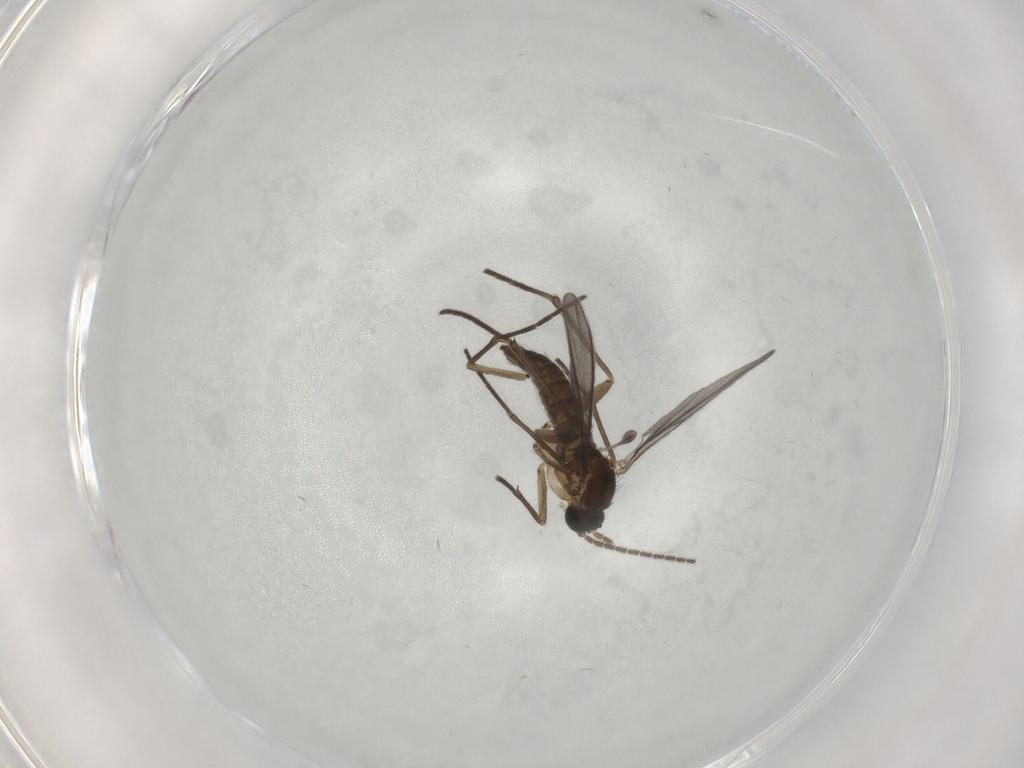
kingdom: Animalia
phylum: Arthropoda
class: Insecta
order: Diptera
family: Sciaridae
